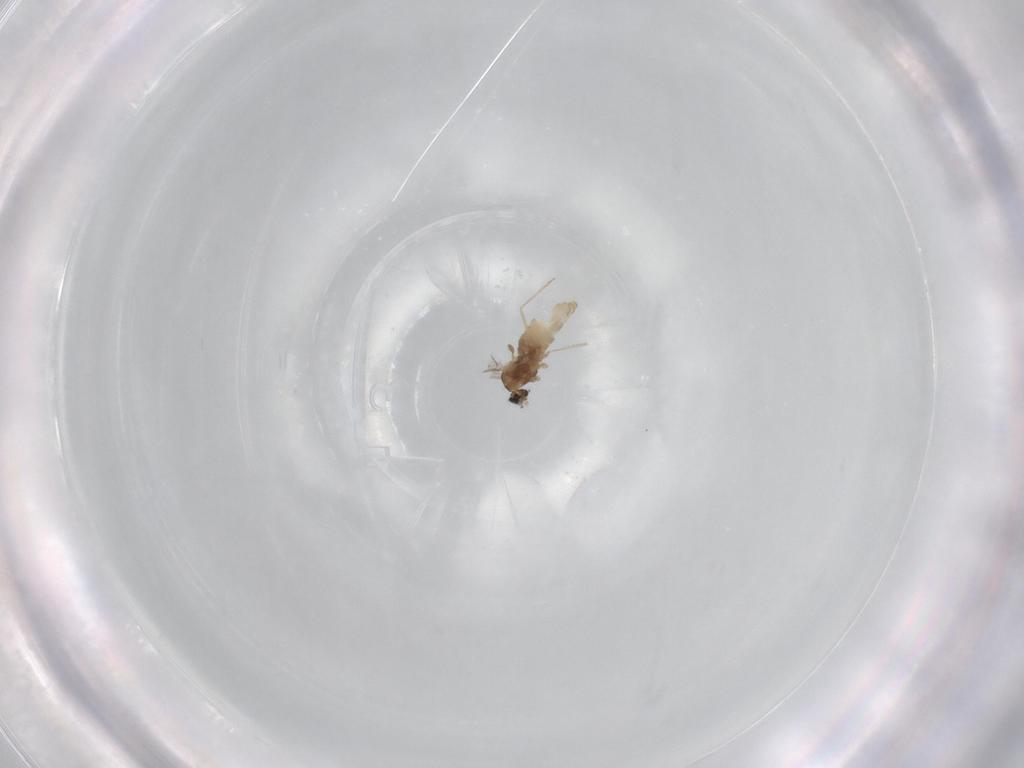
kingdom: Animalia
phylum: Arthropoda
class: Insecta
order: Diptera
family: Cecidomyiidae
